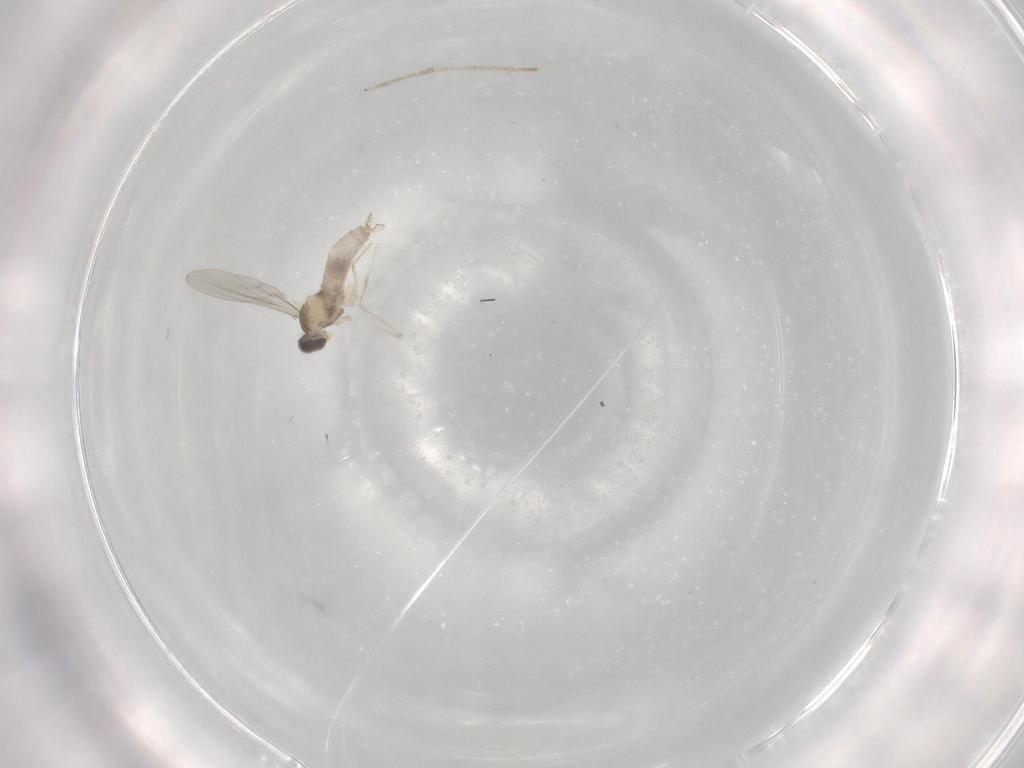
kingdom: Animalia
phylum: Arthropoda
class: Insecta
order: Diptera
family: Chironomidae
